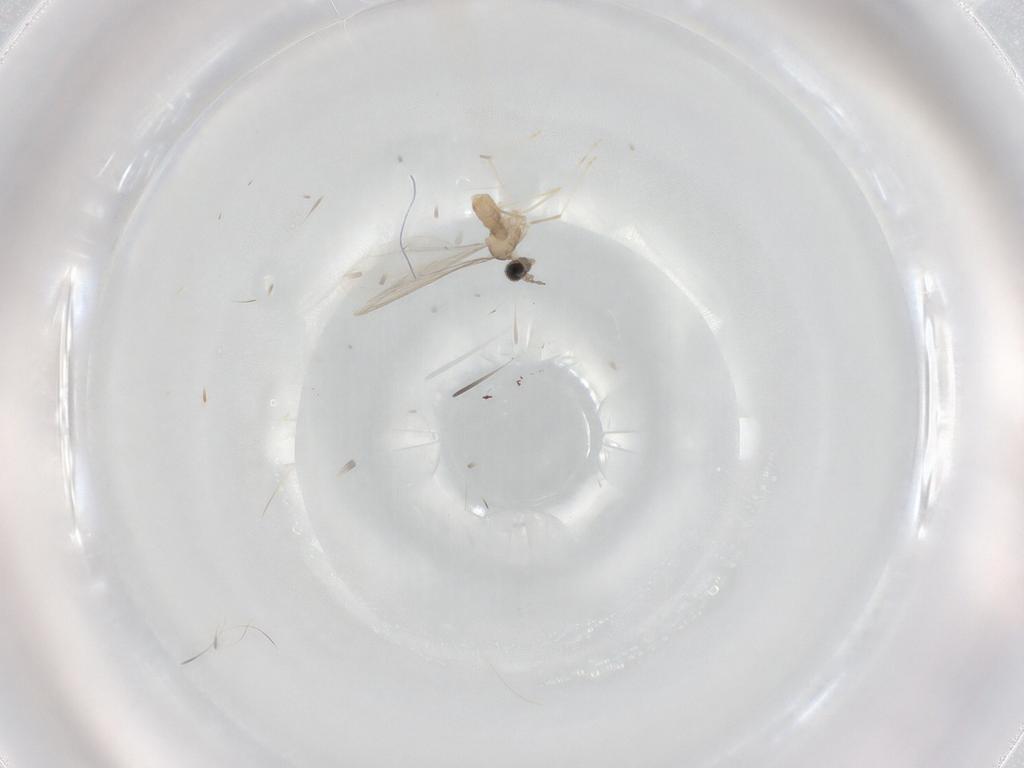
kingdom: Animalia
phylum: Arthropoda
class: Insecta
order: Diptera
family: Cecidomyiidae
